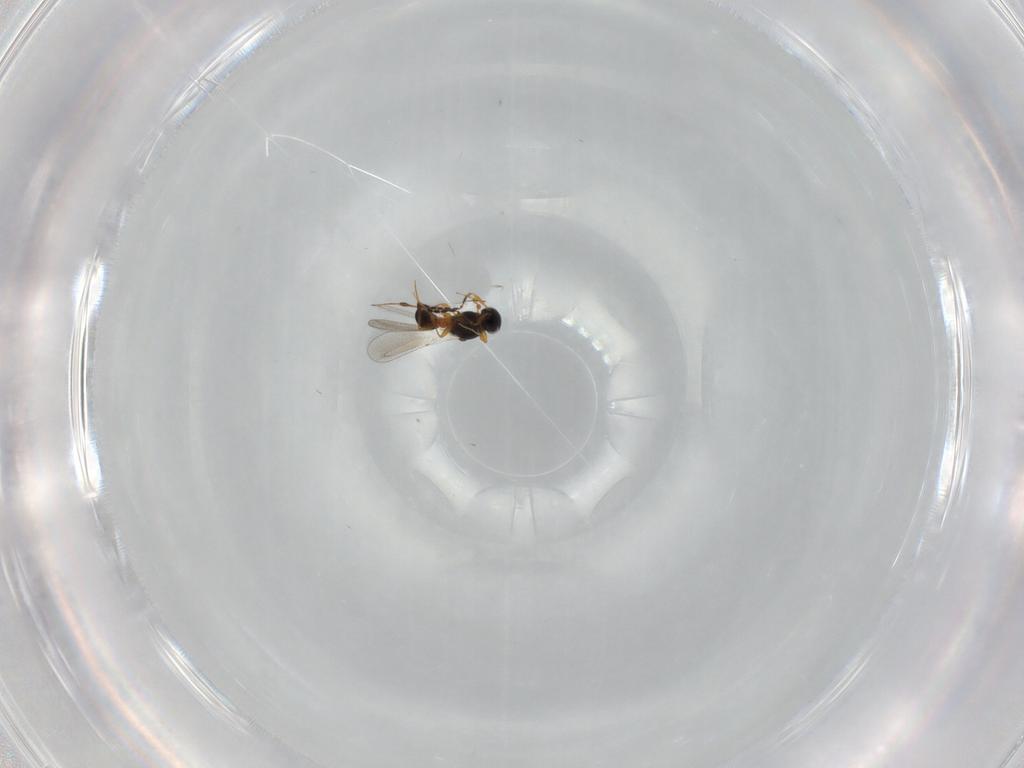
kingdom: Animalia
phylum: Arthropoda
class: Insecta
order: Hymenoptera
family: Platygastridae
